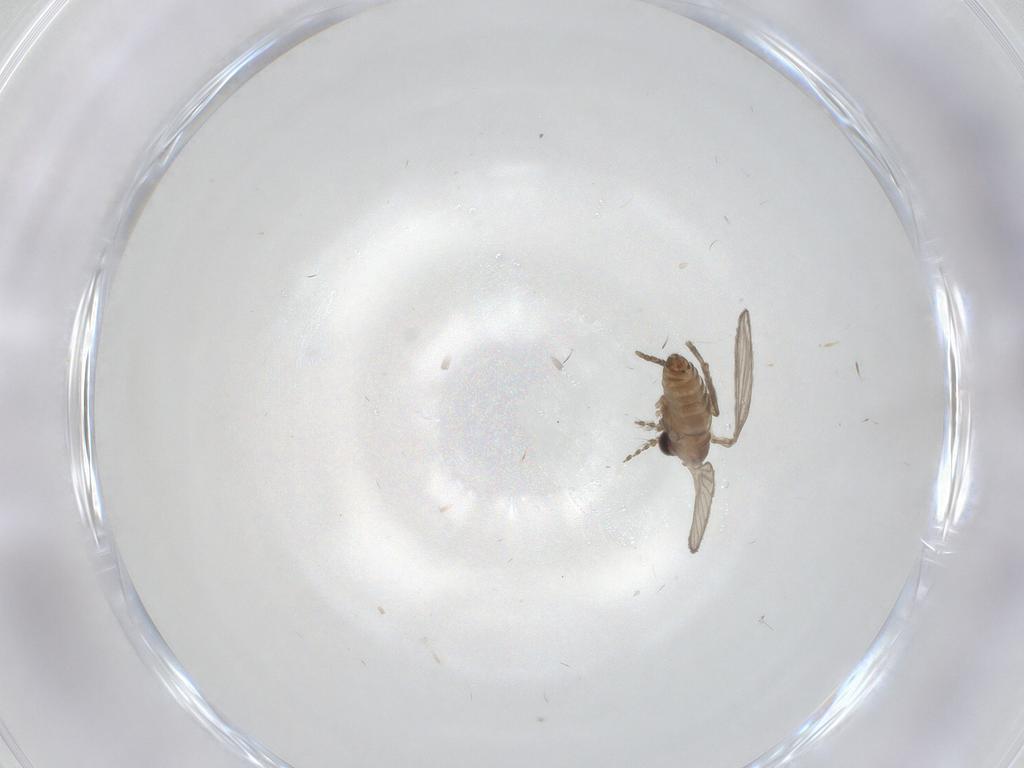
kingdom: Animalia
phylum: Arthropoda
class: Insecta
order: Diptera
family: Psychodidae
